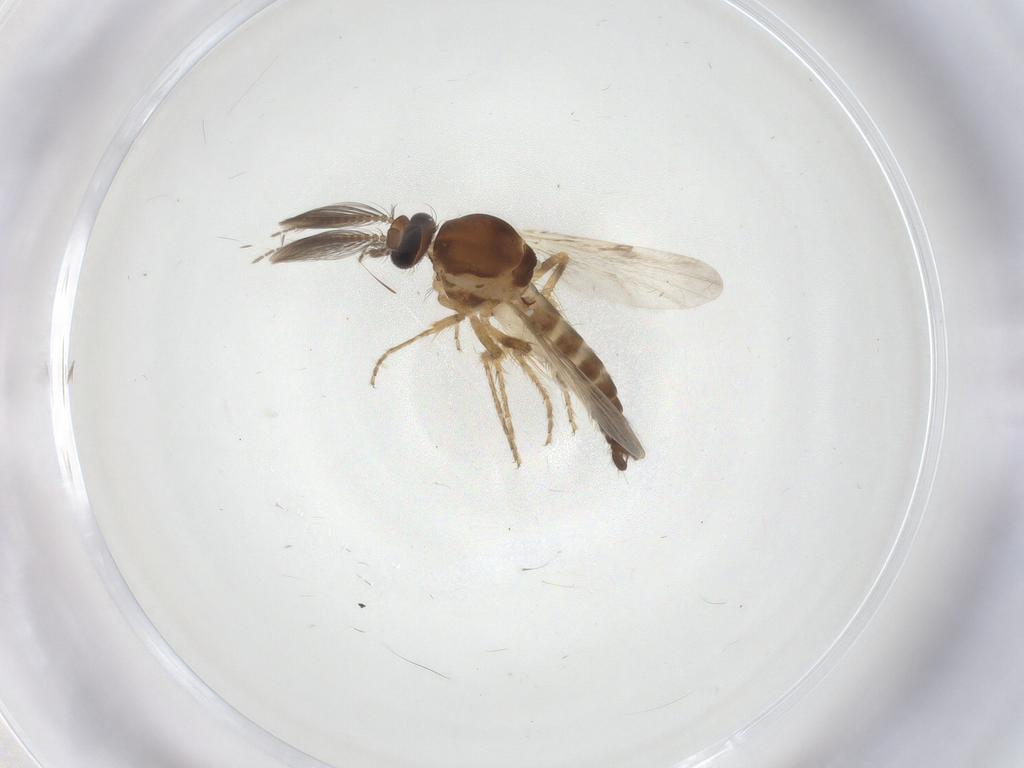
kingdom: Animalia
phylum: Arthropoda
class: Insecta
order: Diptera
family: Ceratopogonidae
